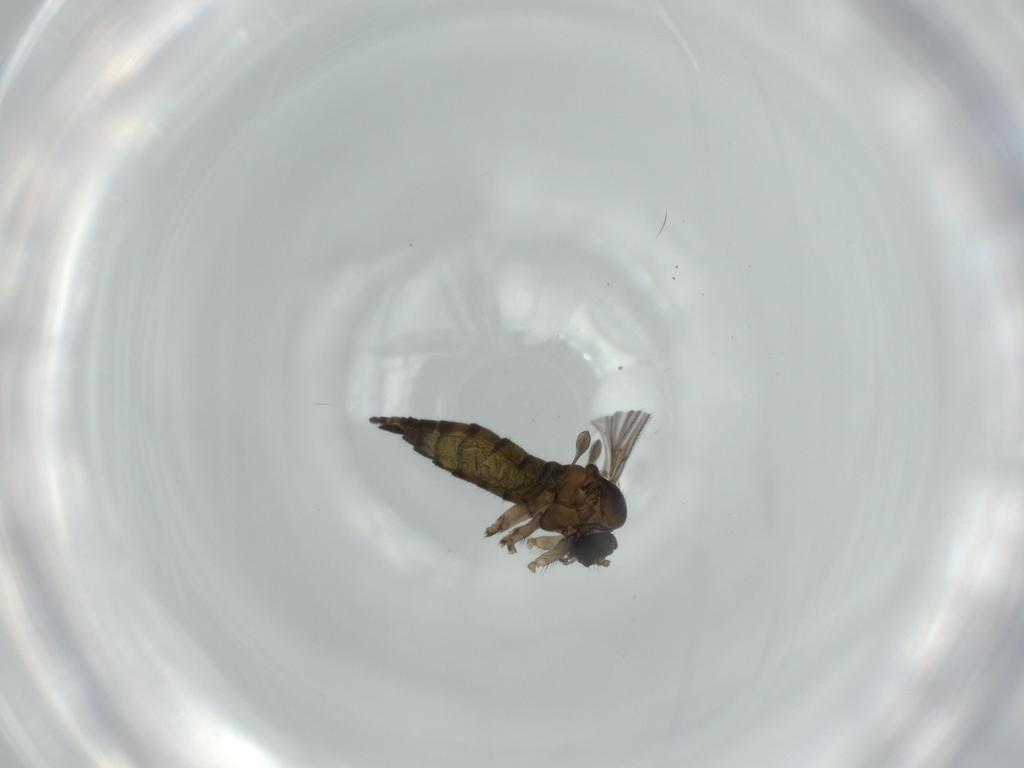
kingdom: Animalia
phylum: Arthropoda
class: Insecta
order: Diptera
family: Sciaridae
